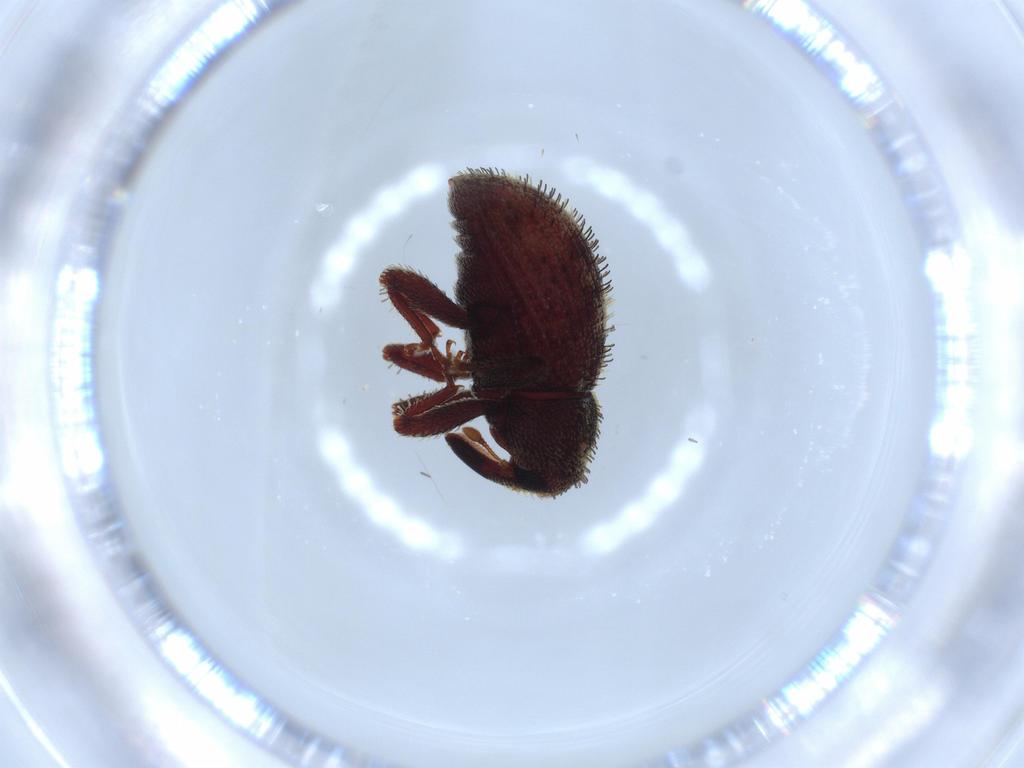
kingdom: Animalia
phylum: Arthropoda
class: Insecta
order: Coleoptera
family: Curculionidae
